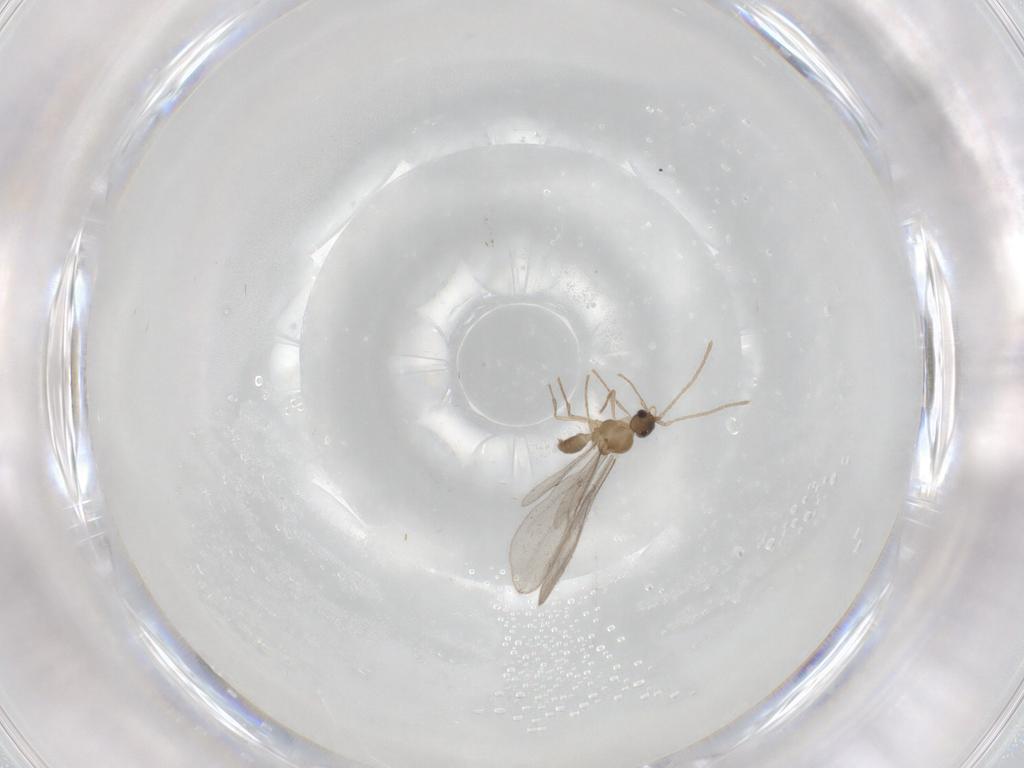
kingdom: Animalia
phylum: Arthropoda
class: Insecta
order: Hymenoptera
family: Formicidae
